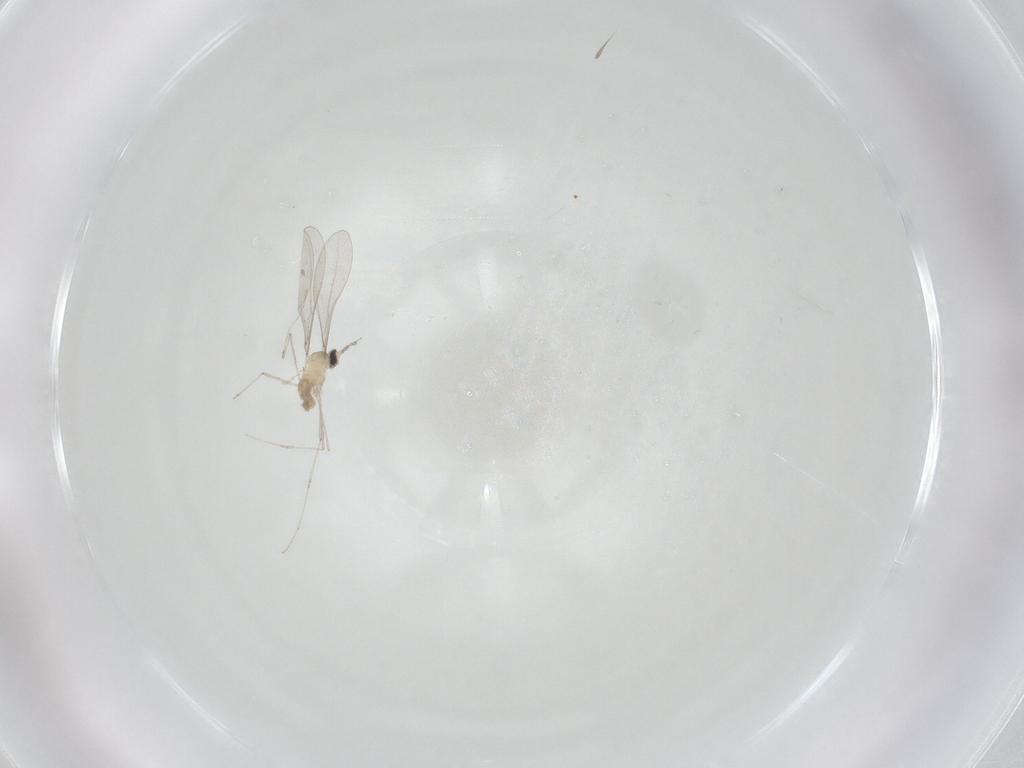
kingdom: Animalia
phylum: Arthropoda
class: Insecta
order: Diptera
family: Cecidomyiidae
